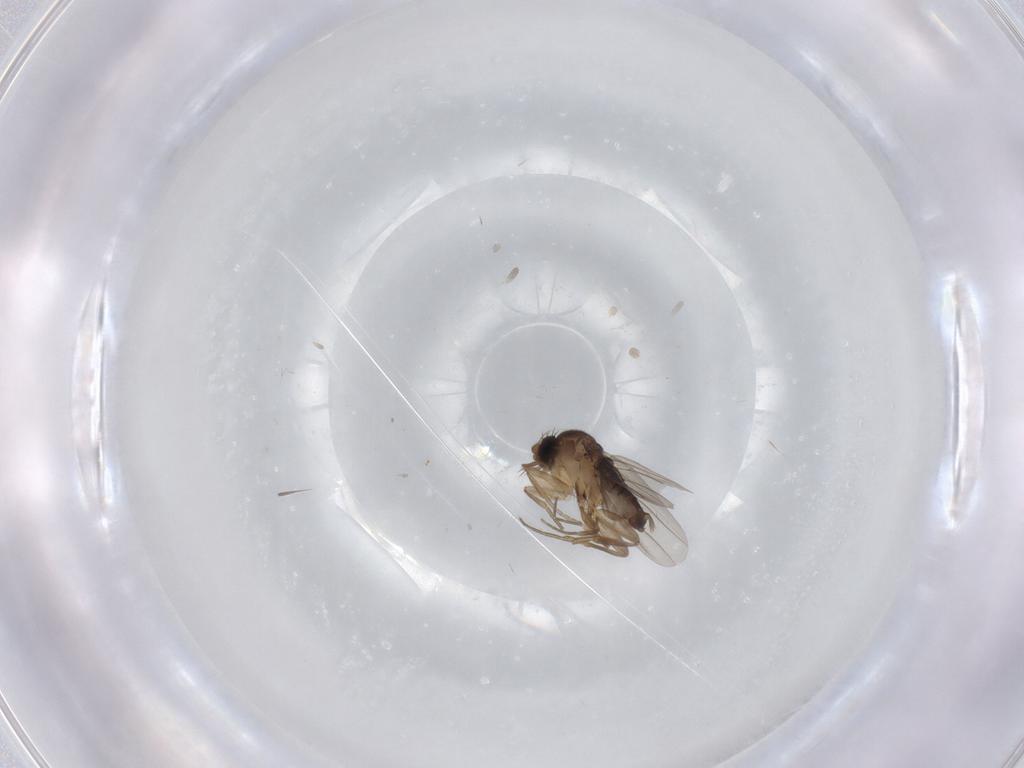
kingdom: Animalia
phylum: Arthropoda
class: Insecta
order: Diptera
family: Phoridae
